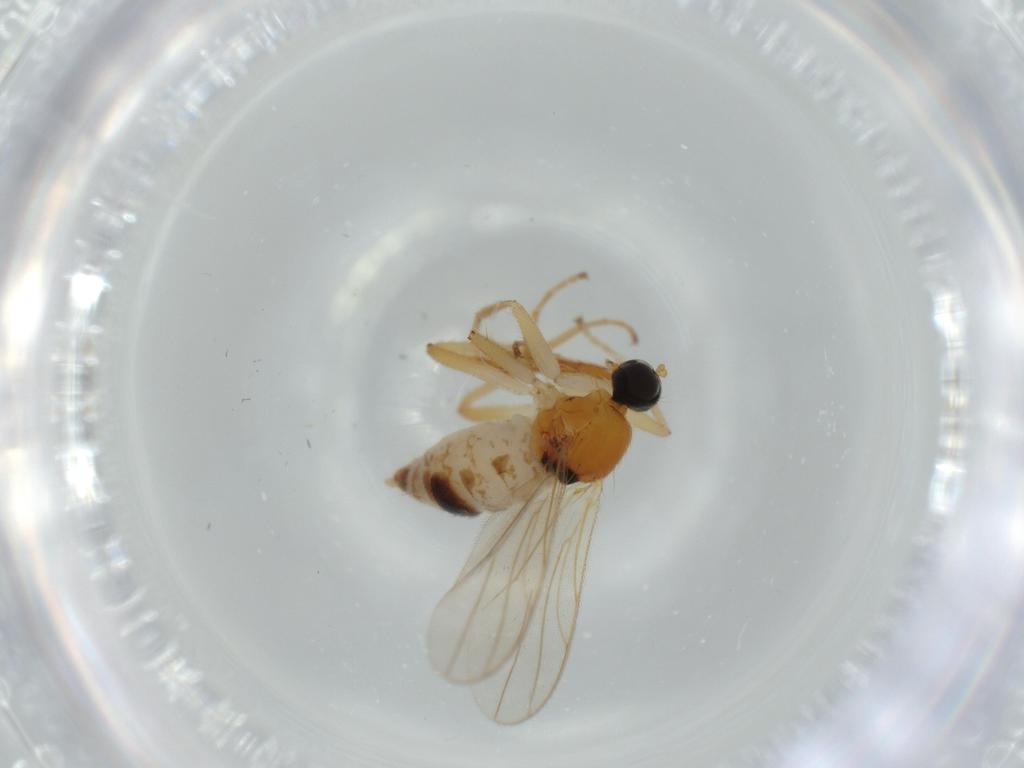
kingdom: Animalia
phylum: Arthropoda
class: Insecta
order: Diptera
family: Hybotidae
